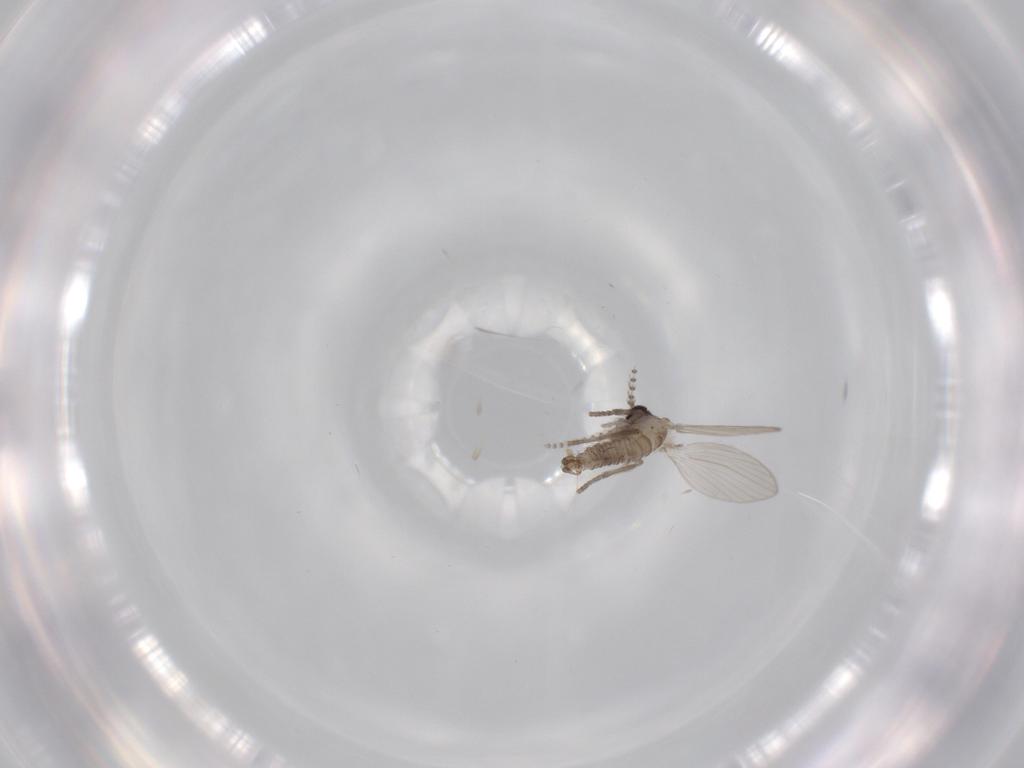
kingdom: Animalia
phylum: Arthropoda
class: Insecta
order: Diptera
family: Psychodidae
